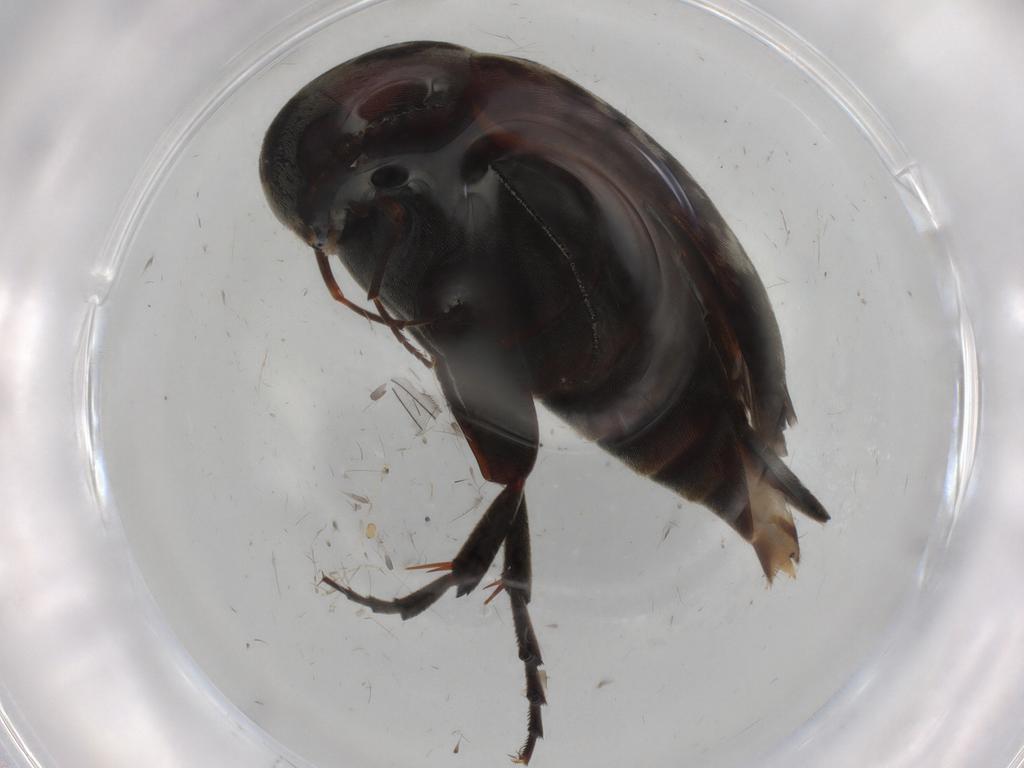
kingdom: Animalia
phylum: Arthropoda
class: Insecta
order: Coleoptera
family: Coccinellidae
